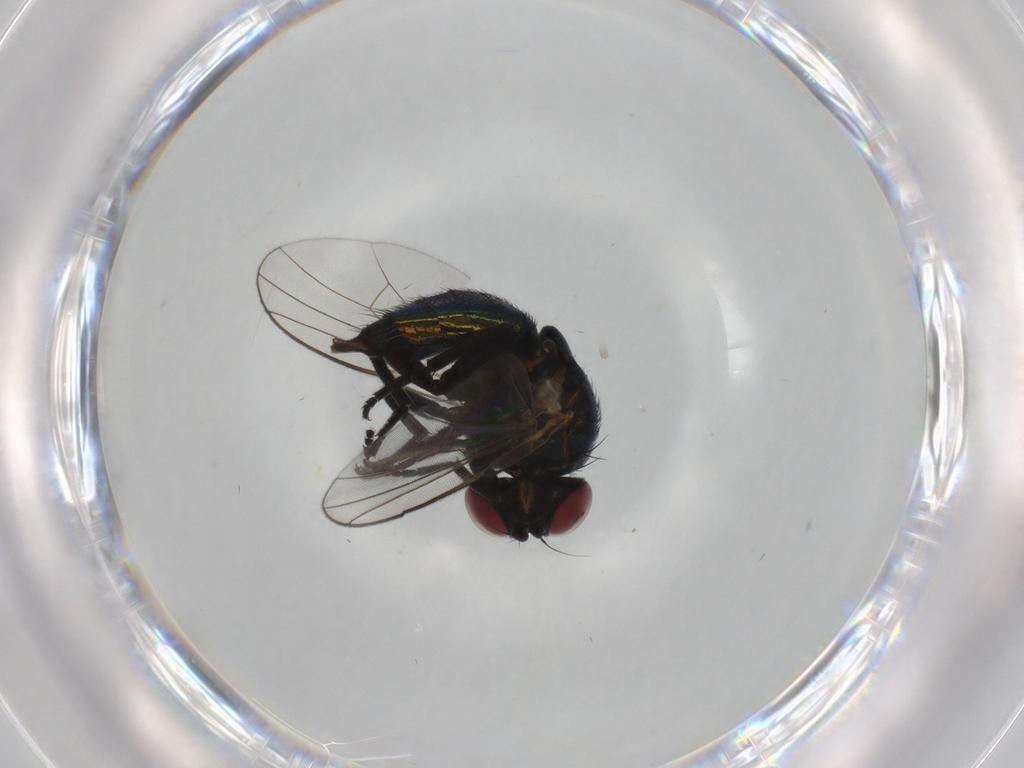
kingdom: Animalia
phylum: Arthropoda
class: Insecta
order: Diptera
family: Agromyzidae
